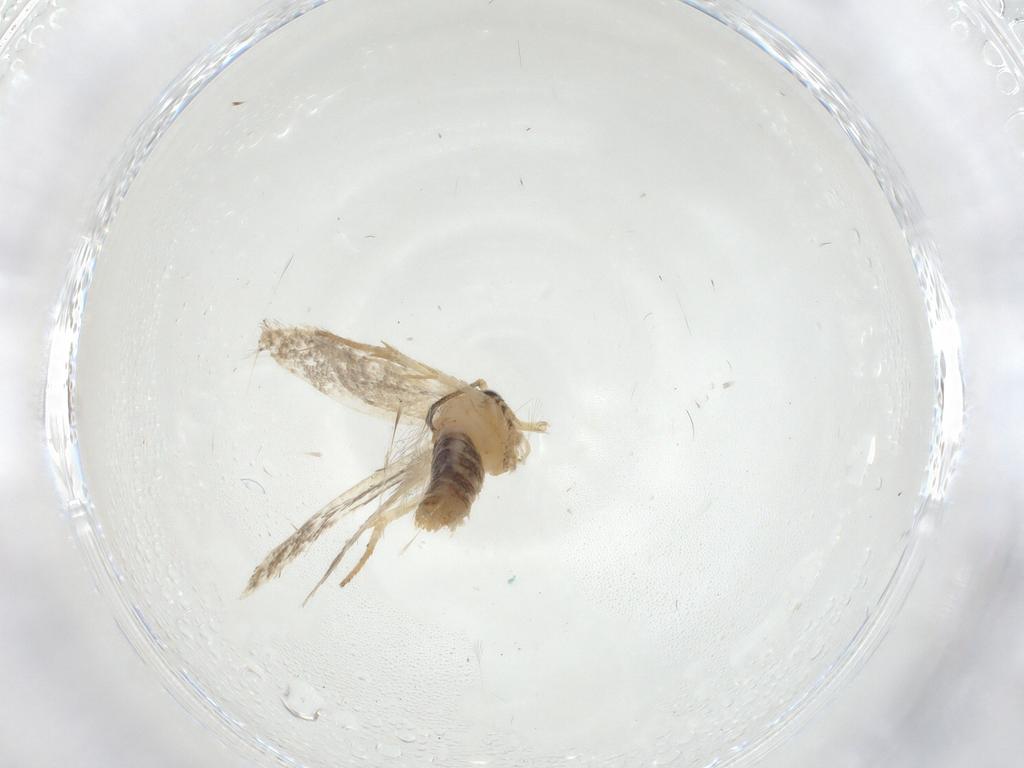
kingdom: Animalia
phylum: Arthropoda
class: Insecta
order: Lepidoptera
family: Gelechiidae
